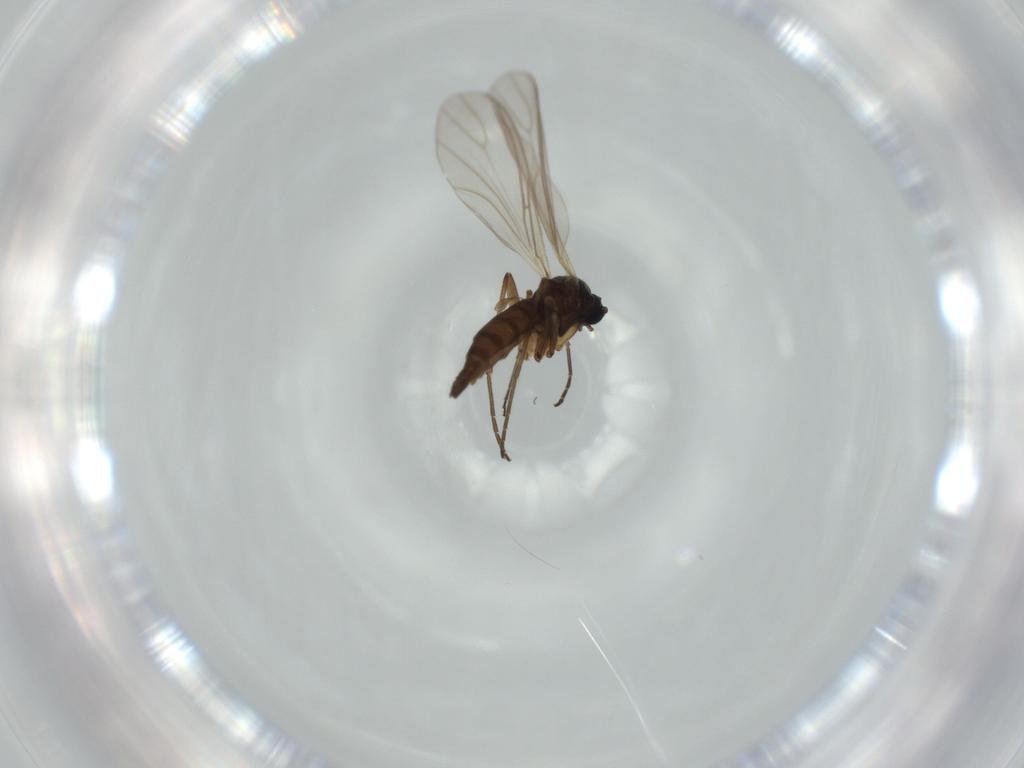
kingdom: Animalia
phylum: Arthropoda
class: Insecta
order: Diptera
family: Sciaridae
